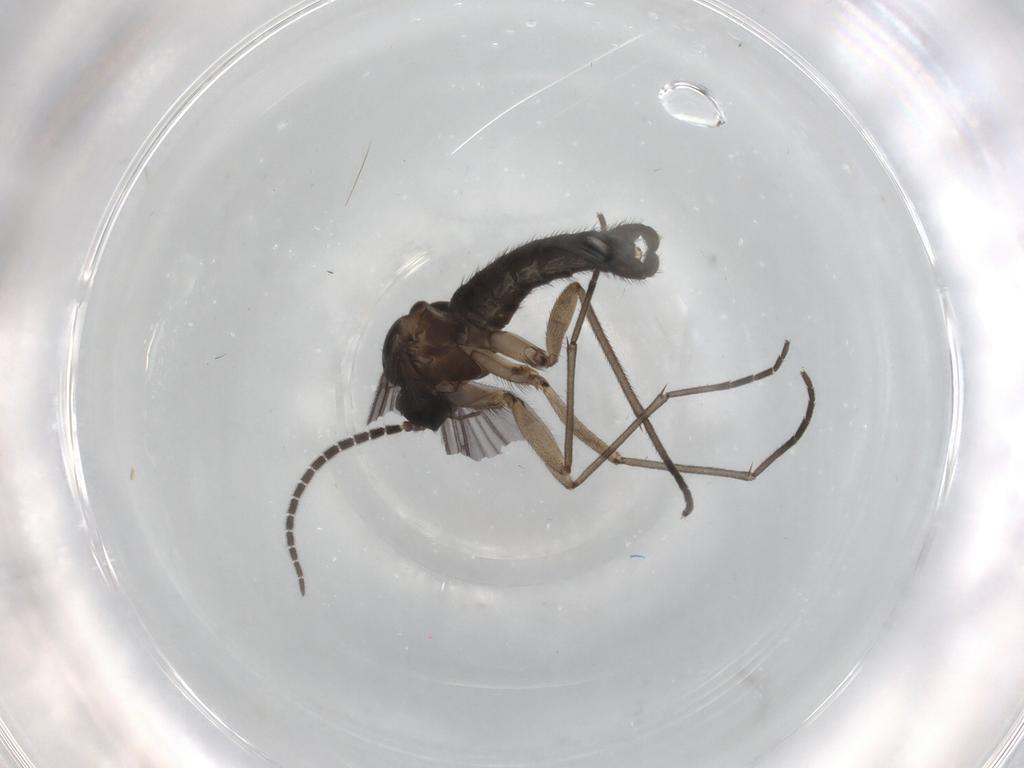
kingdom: Animalia
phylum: Arthropoda
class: Insecta
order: Diptera
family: Sciaridae
